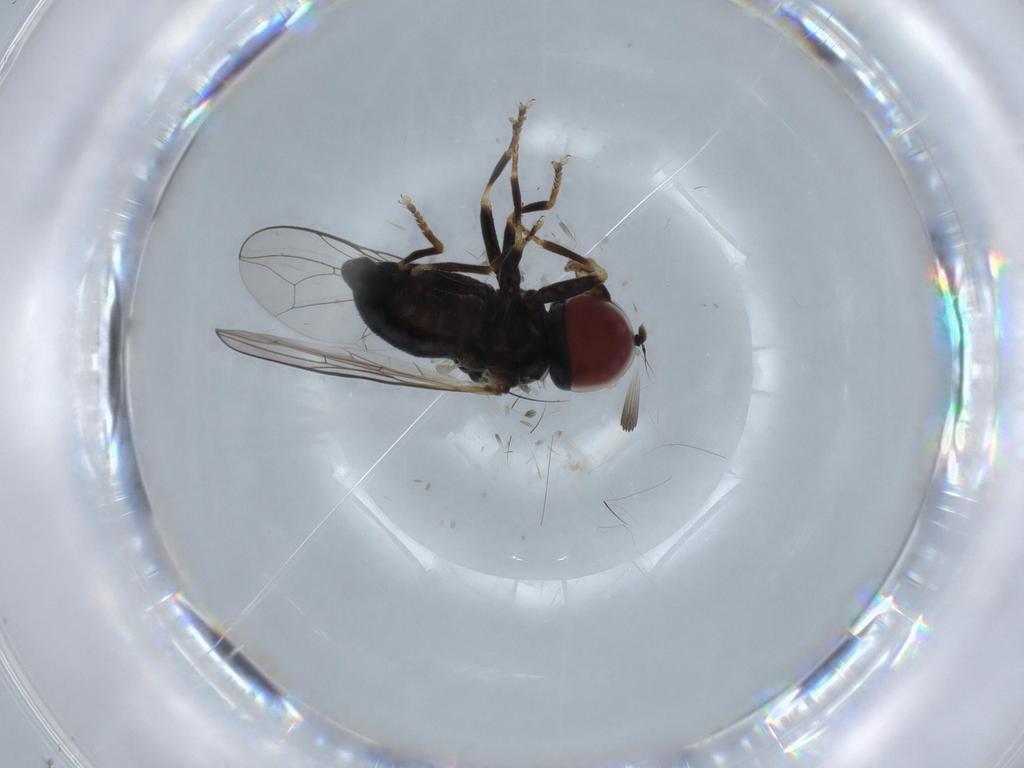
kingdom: Animalia
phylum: Arthropoda
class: Insecta
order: Diptera
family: Pipunculidae
